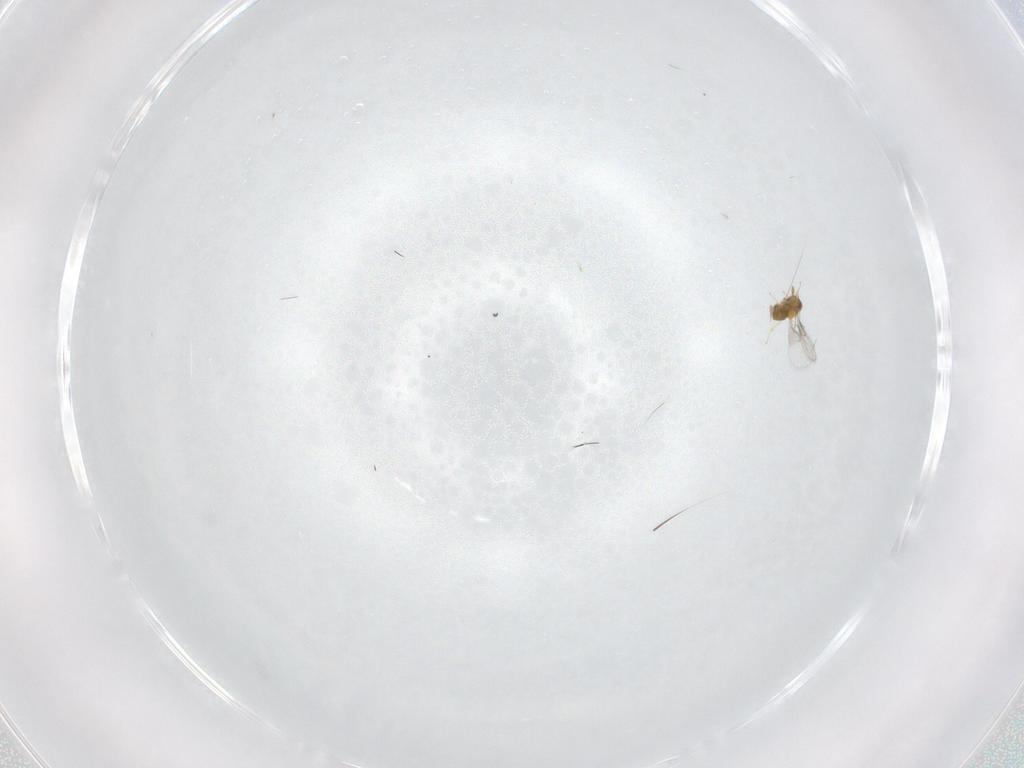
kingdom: Animalia
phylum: Arthropoda
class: Insecta
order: Hymenoptera
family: Trichogrammatidae
